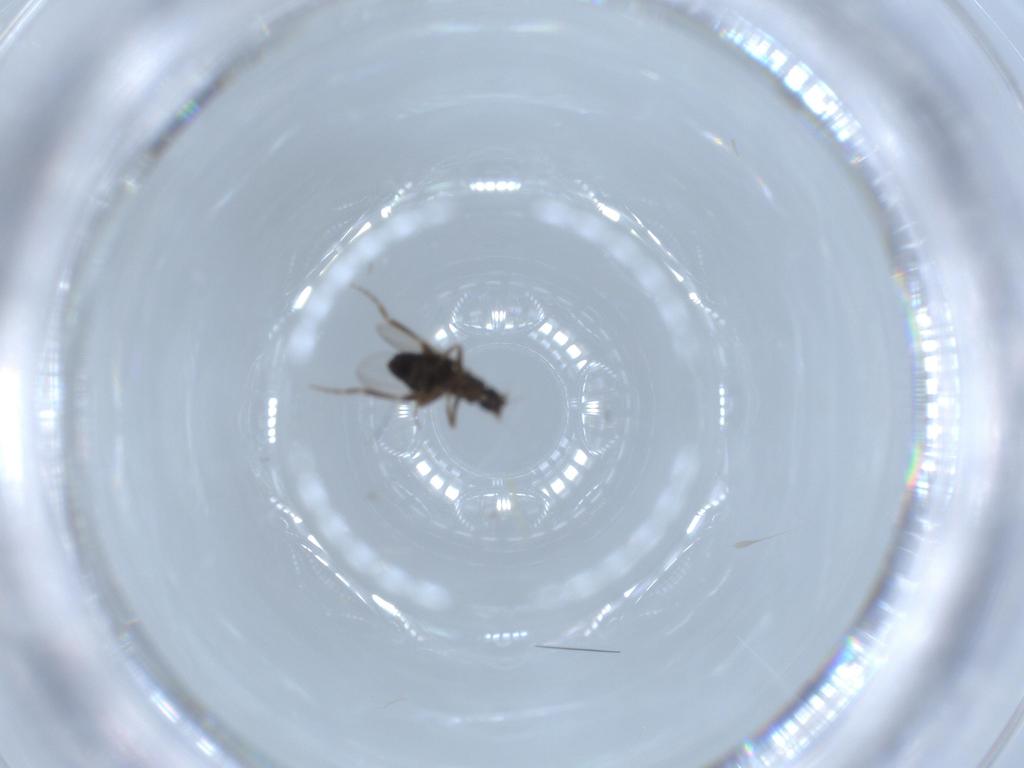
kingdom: Animalia
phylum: Arthropoda
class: Insecta
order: Diptera
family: Phoridae
